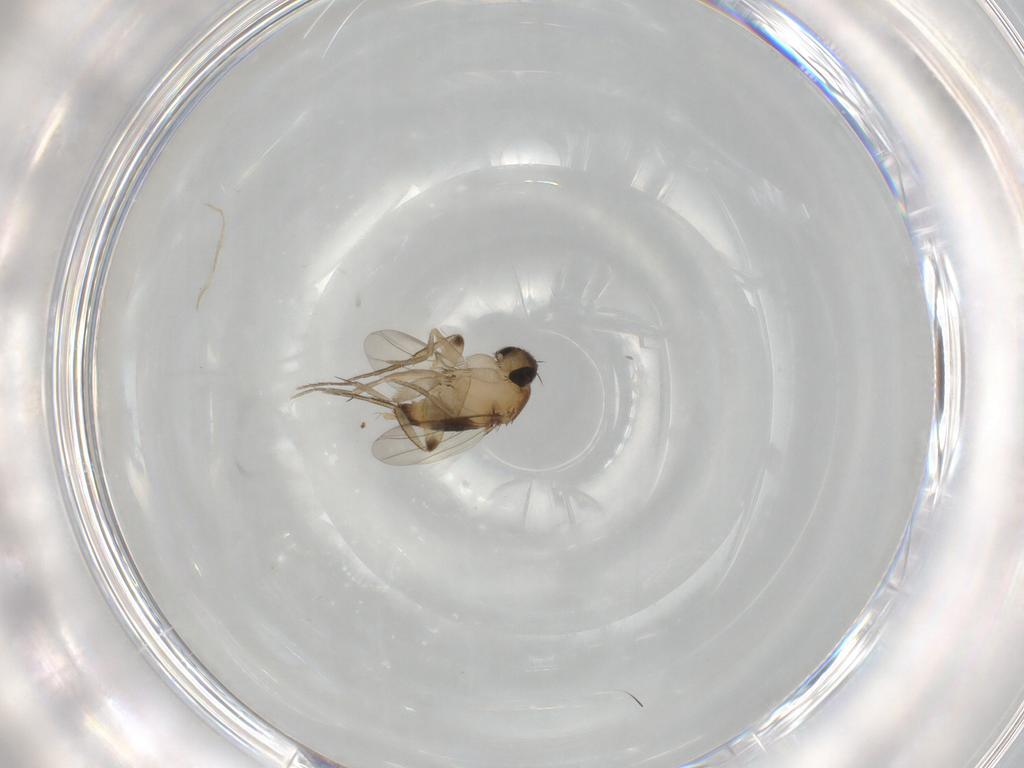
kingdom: Animalia
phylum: Arthropoda
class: Insecta
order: Diptera
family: Phoridae
